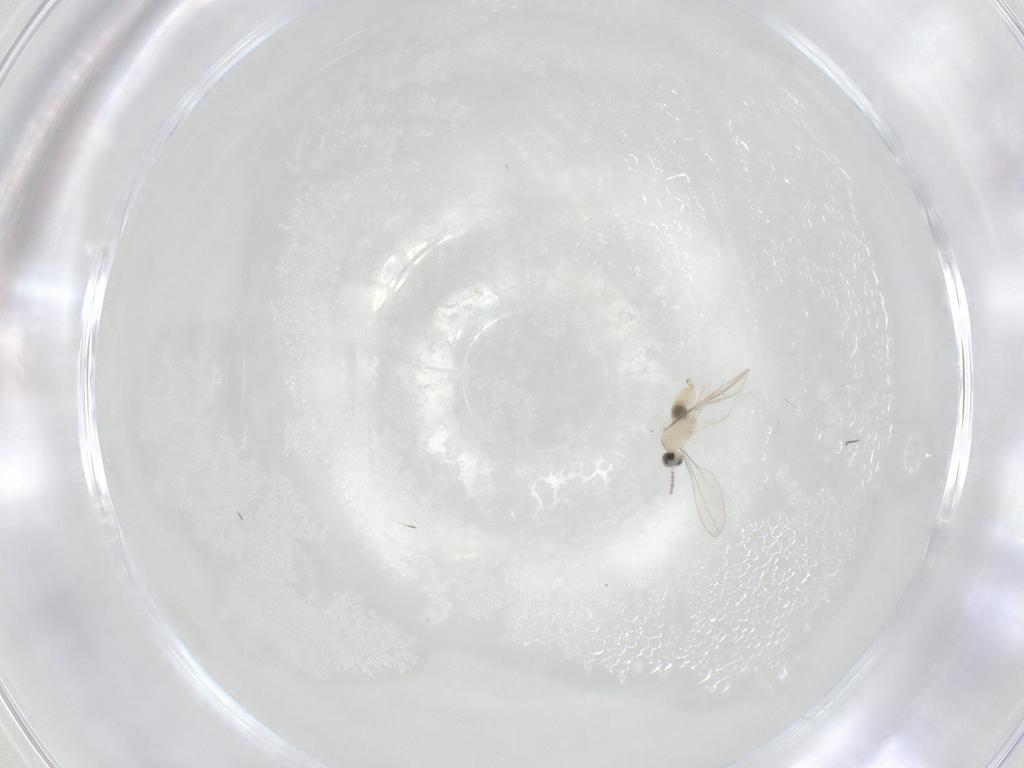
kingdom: Animalia
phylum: Arthropoda
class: Insecta
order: Diptera
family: Cecidomyiidae
